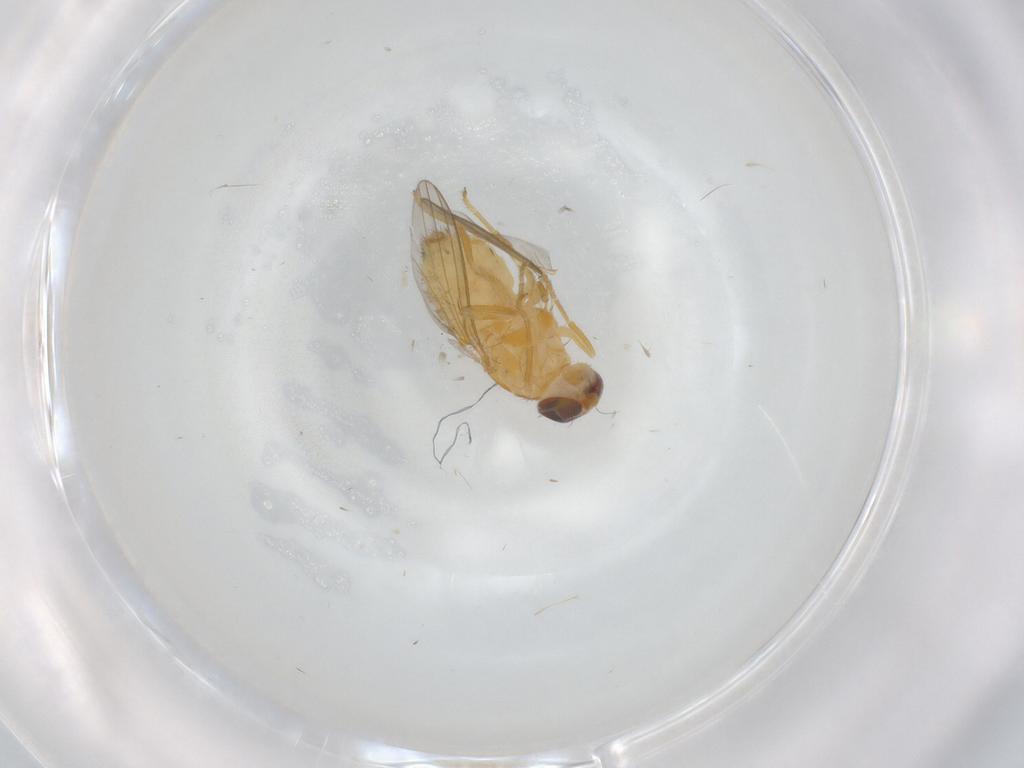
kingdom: Animalia
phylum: Arthropoda
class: Insecta
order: Diptera
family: Chyromyidae
